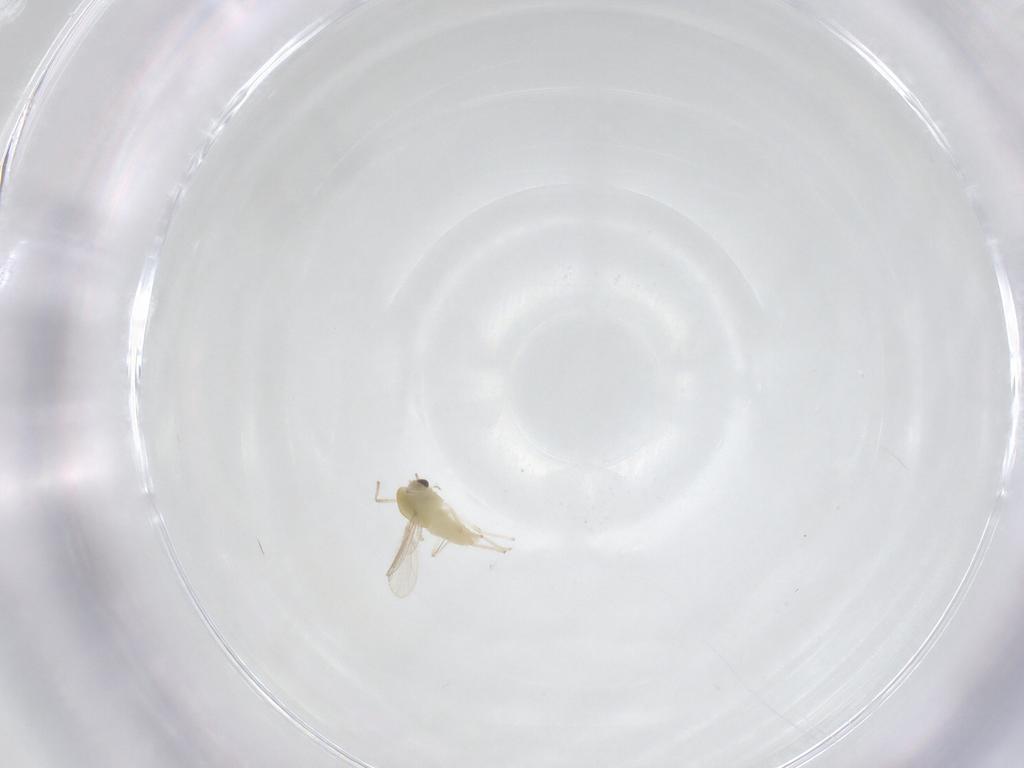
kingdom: Animalia
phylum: Arthropoda
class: Insecta
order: Diptera
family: Chironomidae
